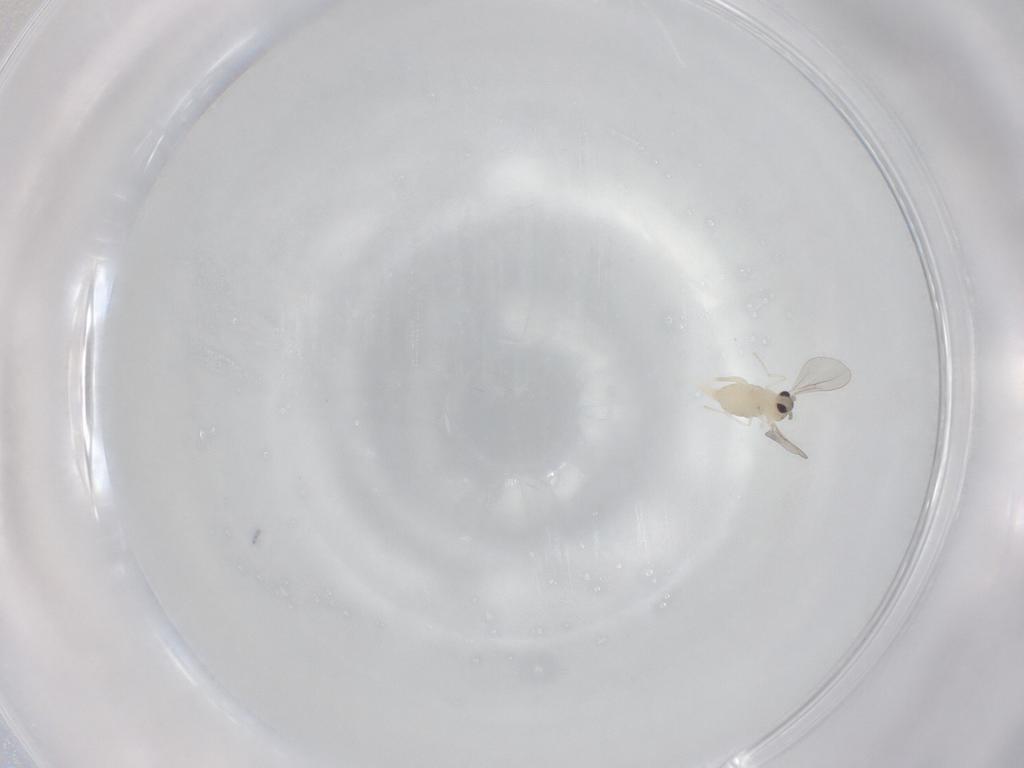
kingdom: Animalia
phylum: Arthropoda
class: Insecta
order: Diptera
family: Cecidomyiidae
